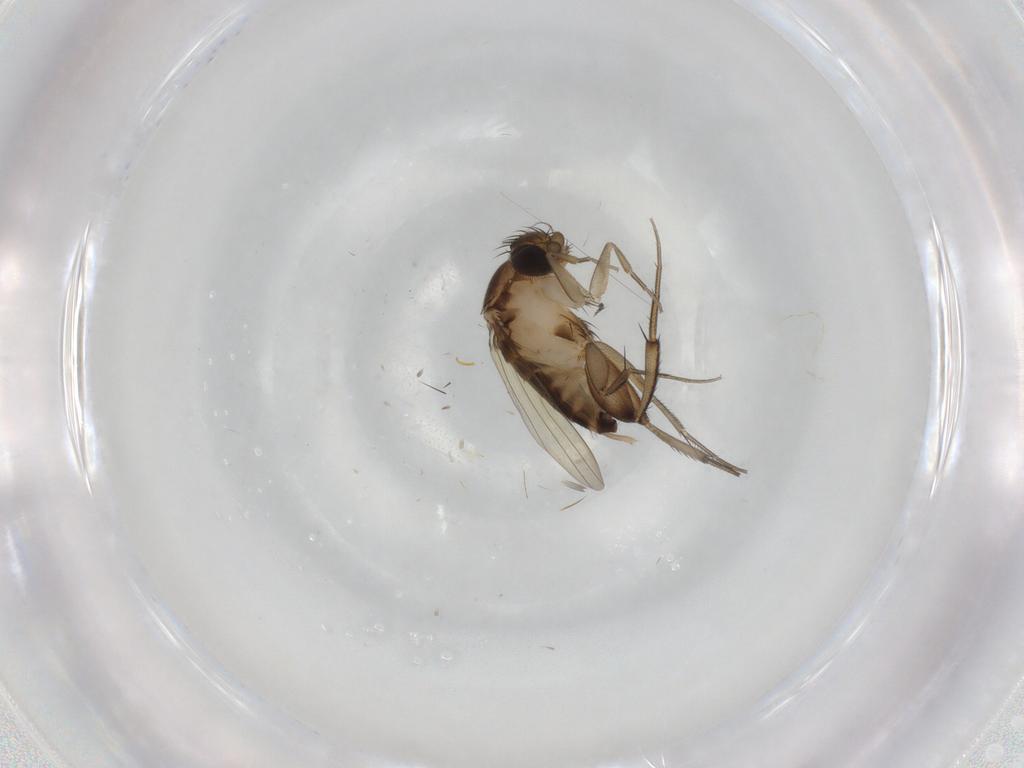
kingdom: Animalia
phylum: Arthropoda
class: Insecta
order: Diptera
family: Phoridae
